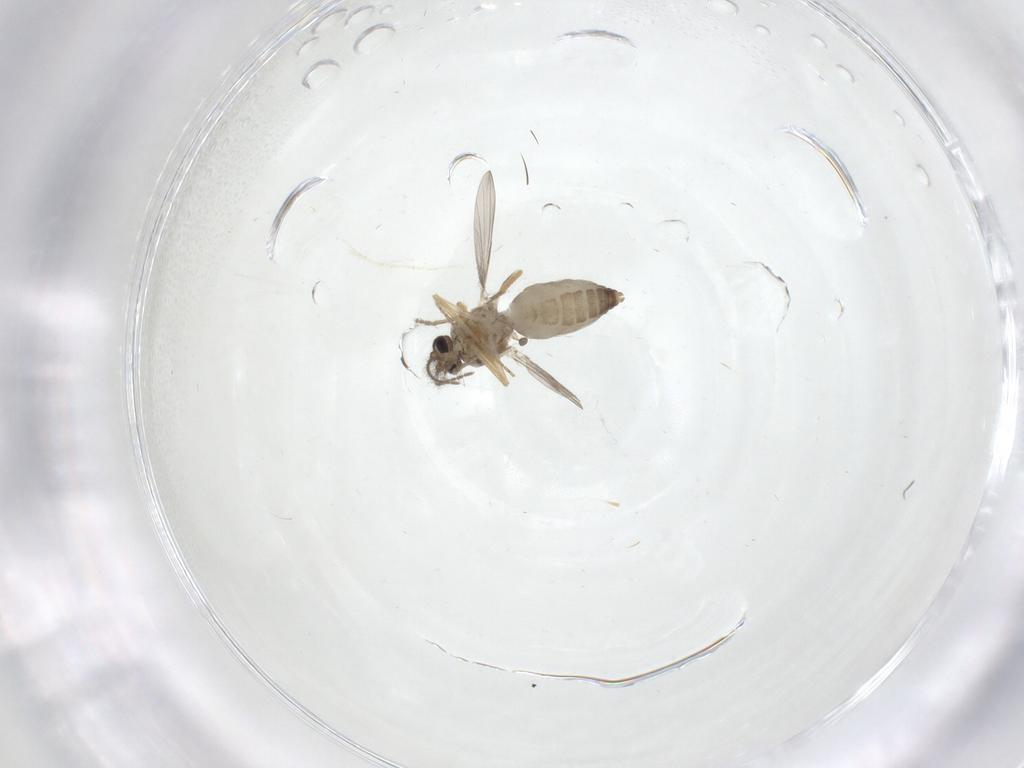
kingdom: Animalia
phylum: Arthropoda
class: Insecta
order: Diptera
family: Ceratopogonidae
